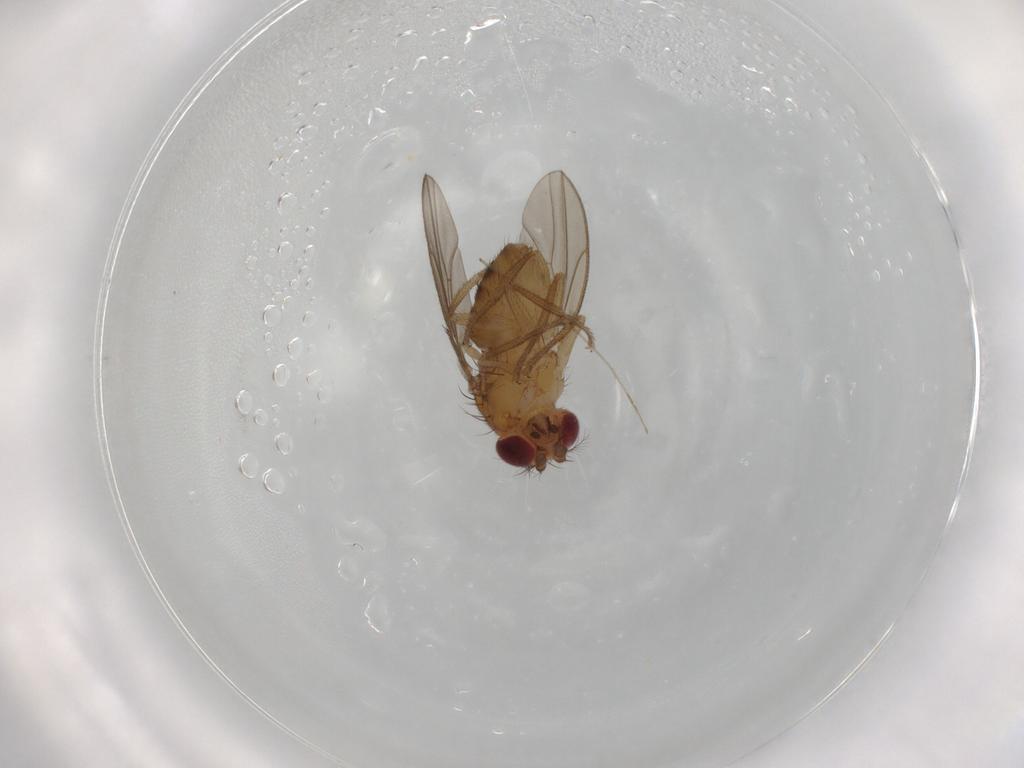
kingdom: Animalia
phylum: Arthropoda
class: Insecta
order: Diptera
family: Drosophilidae
